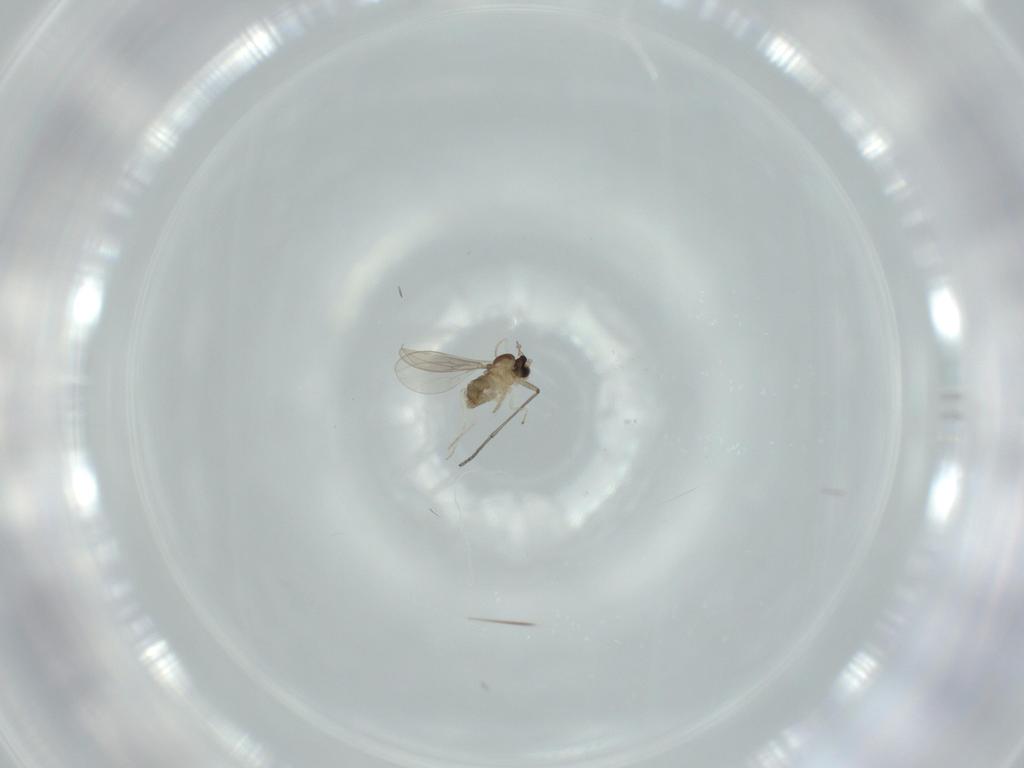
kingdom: Animalia
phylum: Arthropoda
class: Insecta
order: Diptera
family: Cecidomyiidae
